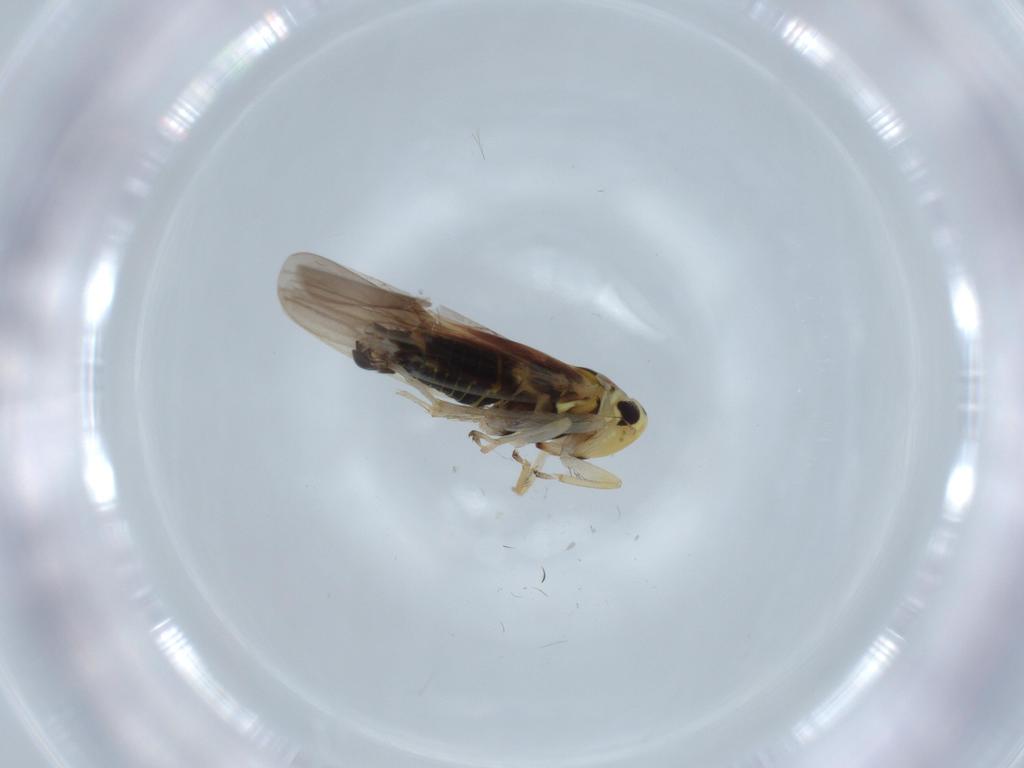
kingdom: Animalia
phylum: Arthropoda
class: Insecta
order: Hemiptera
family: Cicadellidae
